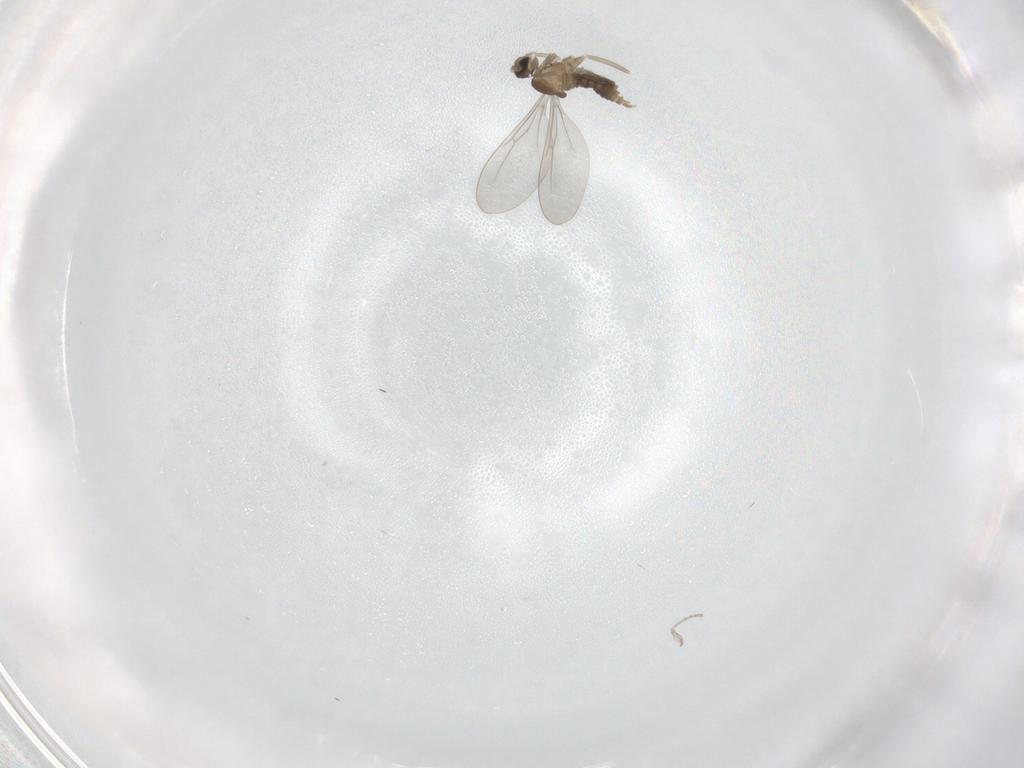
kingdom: Animalia
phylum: Arthropoda
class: Insecta
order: Diptera
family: Cecidomyiidae
